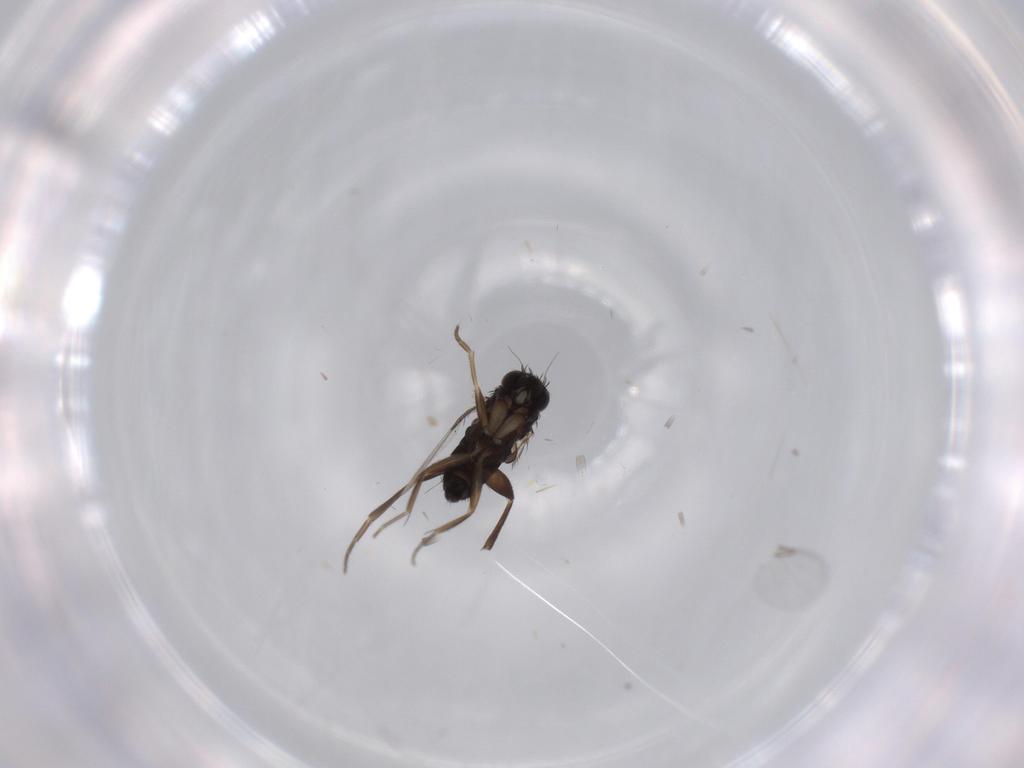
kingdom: Animalia
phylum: Arthropoda
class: Insecta
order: Diptera
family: Phoridae
